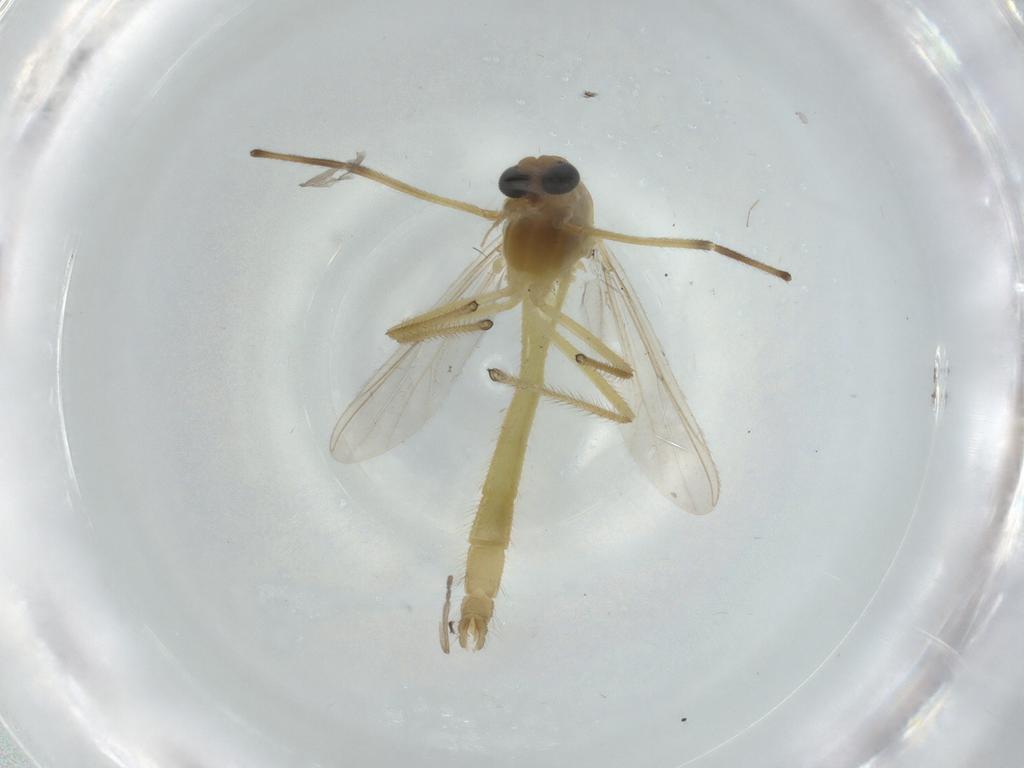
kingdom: Animalia
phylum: Arthropoda
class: Insecta
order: Diptera
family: Chironomidae
